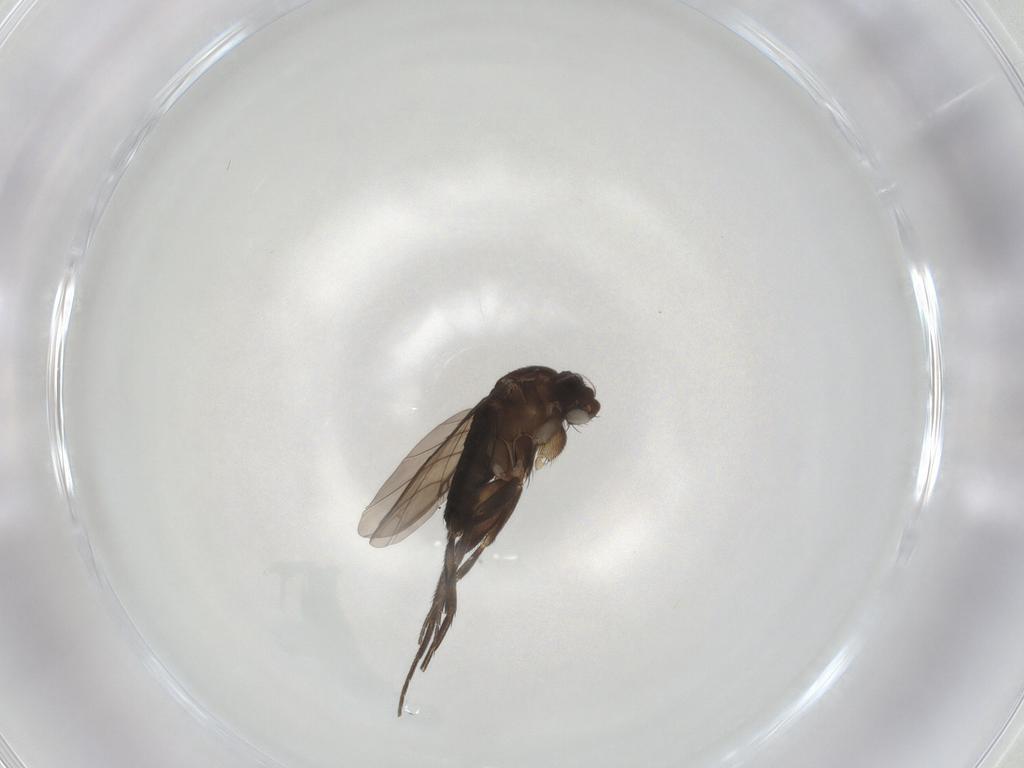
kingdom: Animalia
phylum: Arthropoda
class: Insecta
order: Diptera
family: Phoridae
